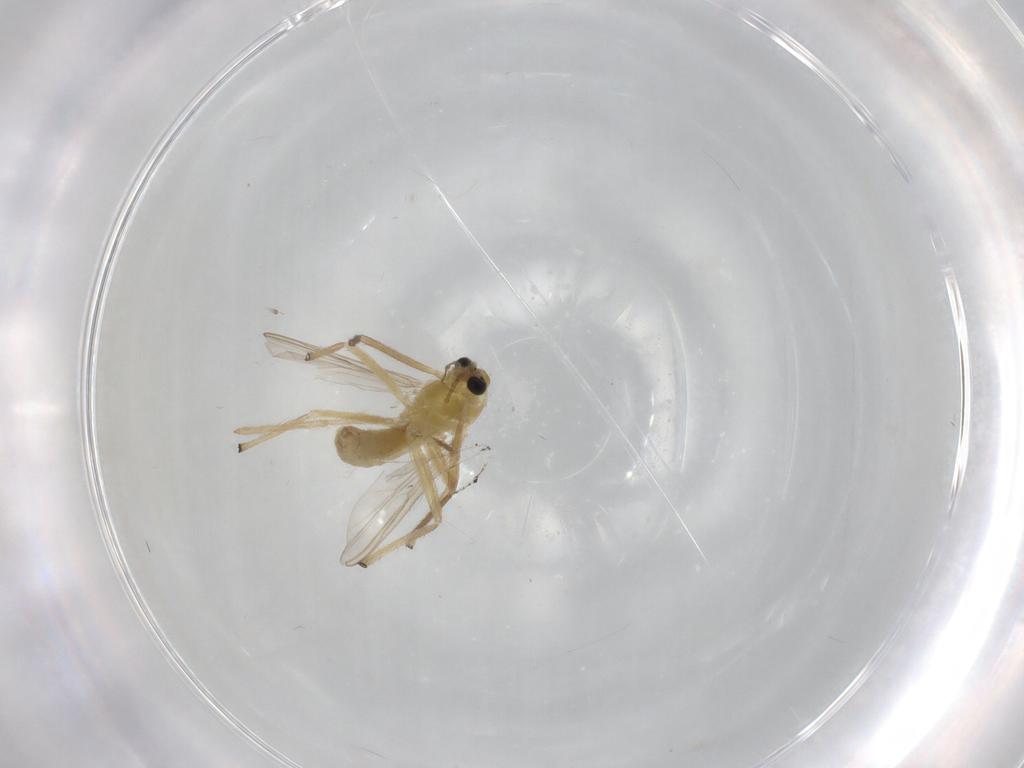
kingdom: Animalia
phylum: Arthropoda
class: Insecta
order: Diptera
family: Chironomidae
